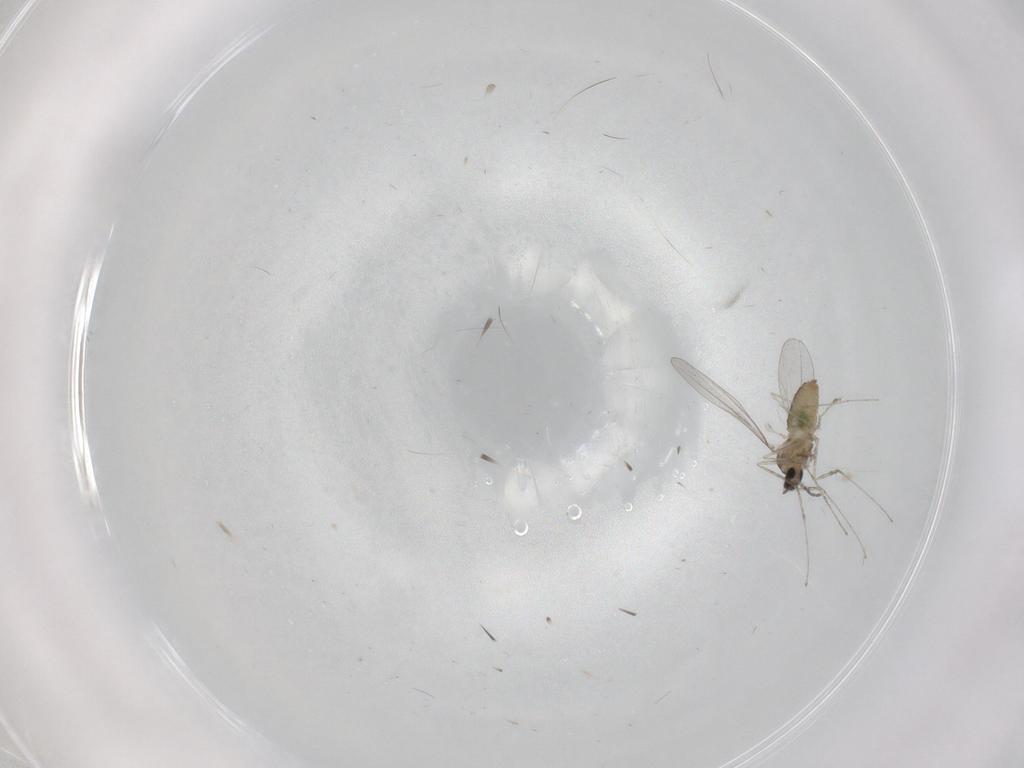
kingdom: Animalia
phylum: Arthropoda
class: Insecta
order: Diptera
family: Cecidomyiidae
